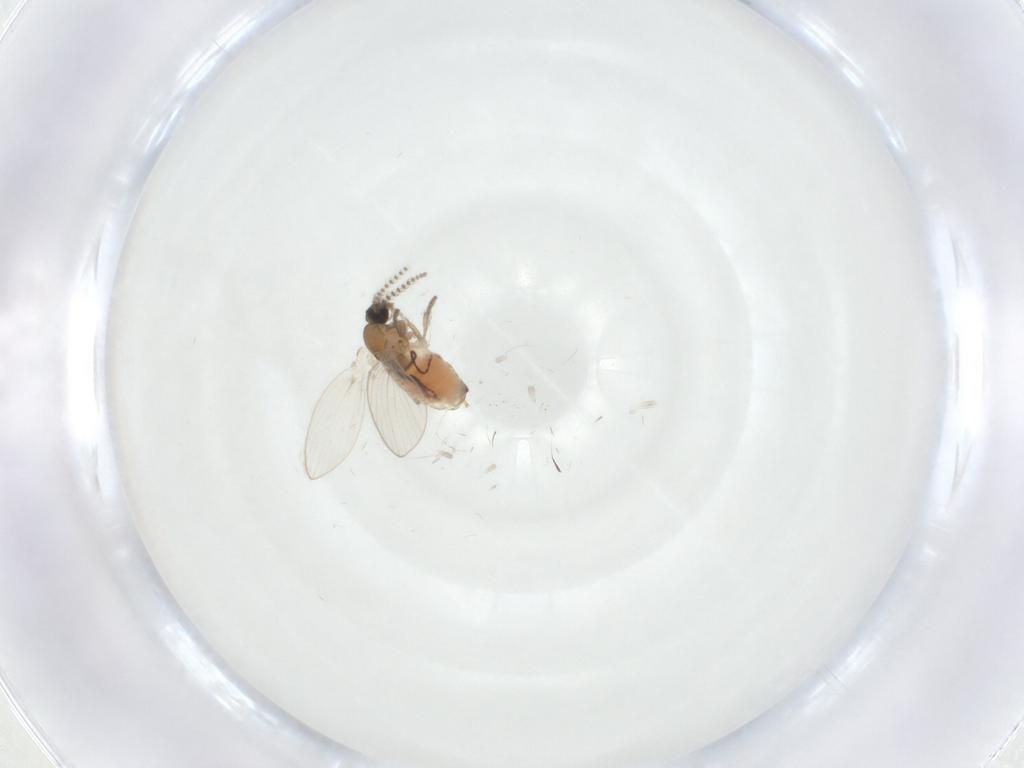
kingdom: Animalia
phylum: Arthropoda
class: Insecta
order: Diptera
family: Psychodidae
